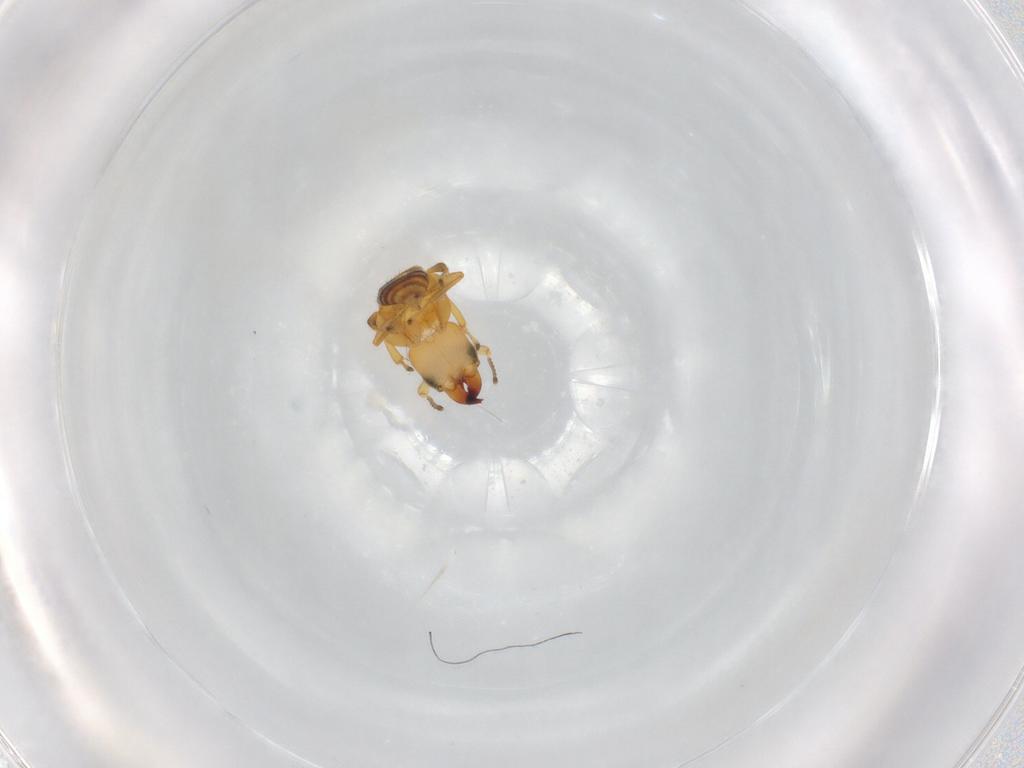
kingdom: Animalia
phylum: Arthropoda
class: Insecta
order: Hymenoptera
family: Pteromalidae
